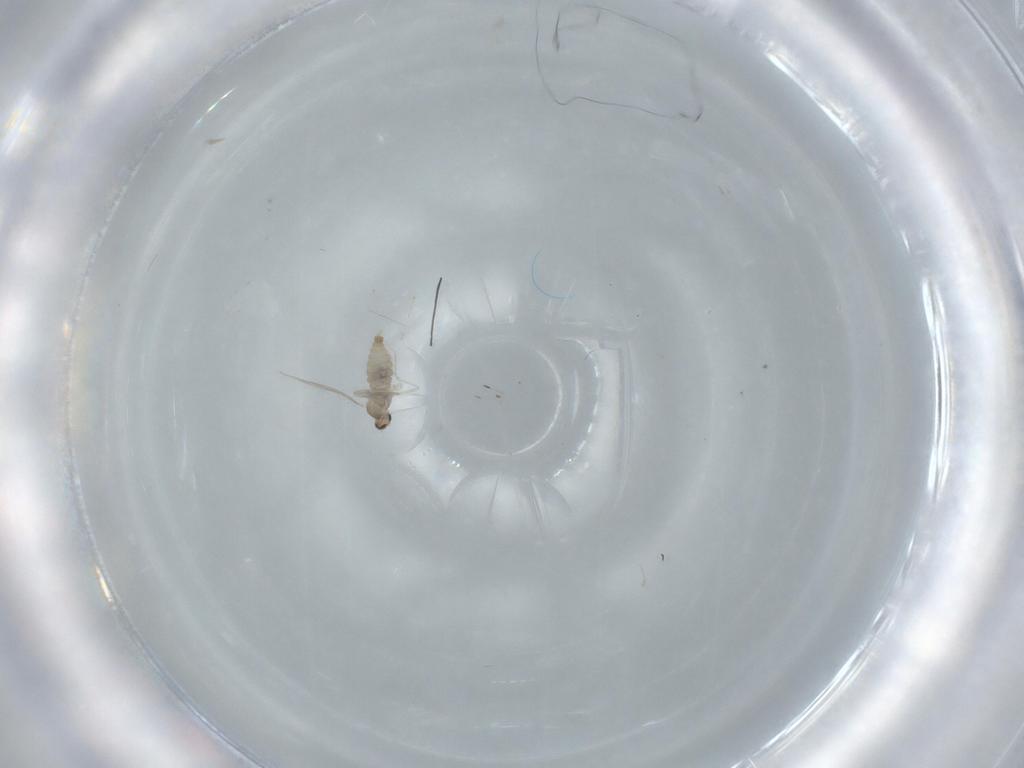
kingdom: Animalia
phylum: Arthropoda
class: Insecta
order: Diptera
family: Cecidomyiidae
